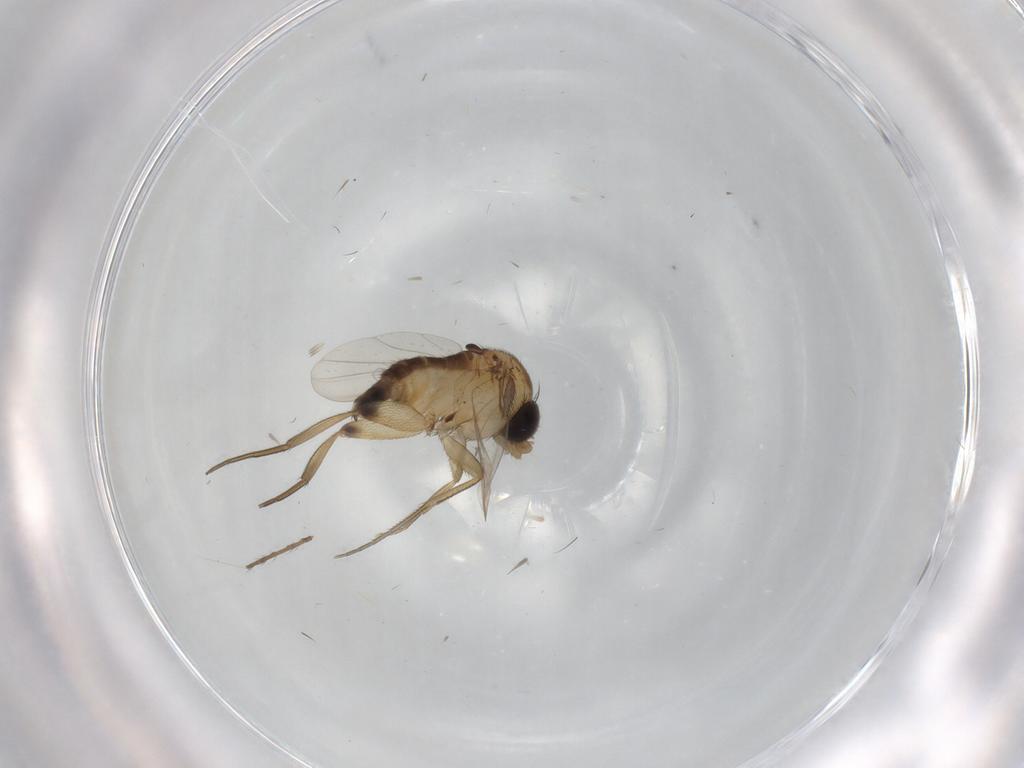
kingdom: Animalia
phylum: Arthropoda
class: Insecta
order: Diptera
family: Phoridae
